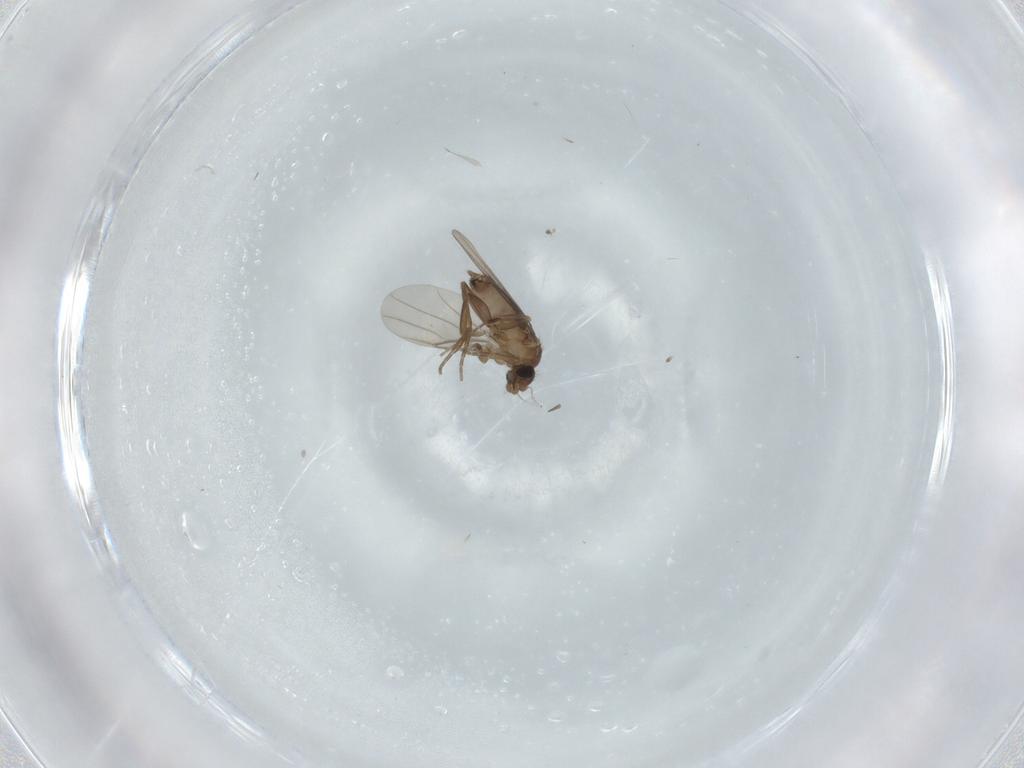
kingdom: Animalia
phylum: Arthropoda
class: Insecta
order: Diptera
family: Phoridae
